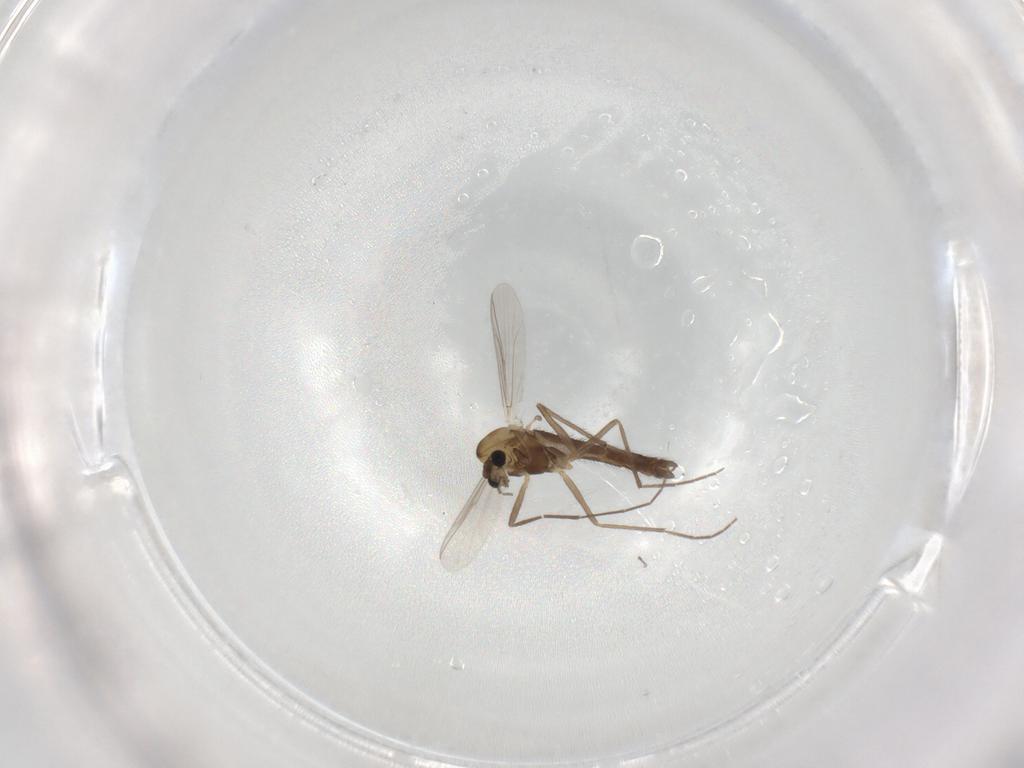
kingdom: Animalia
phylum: Arthropoda
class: Insecta
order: Diptera
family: Chironomidae
